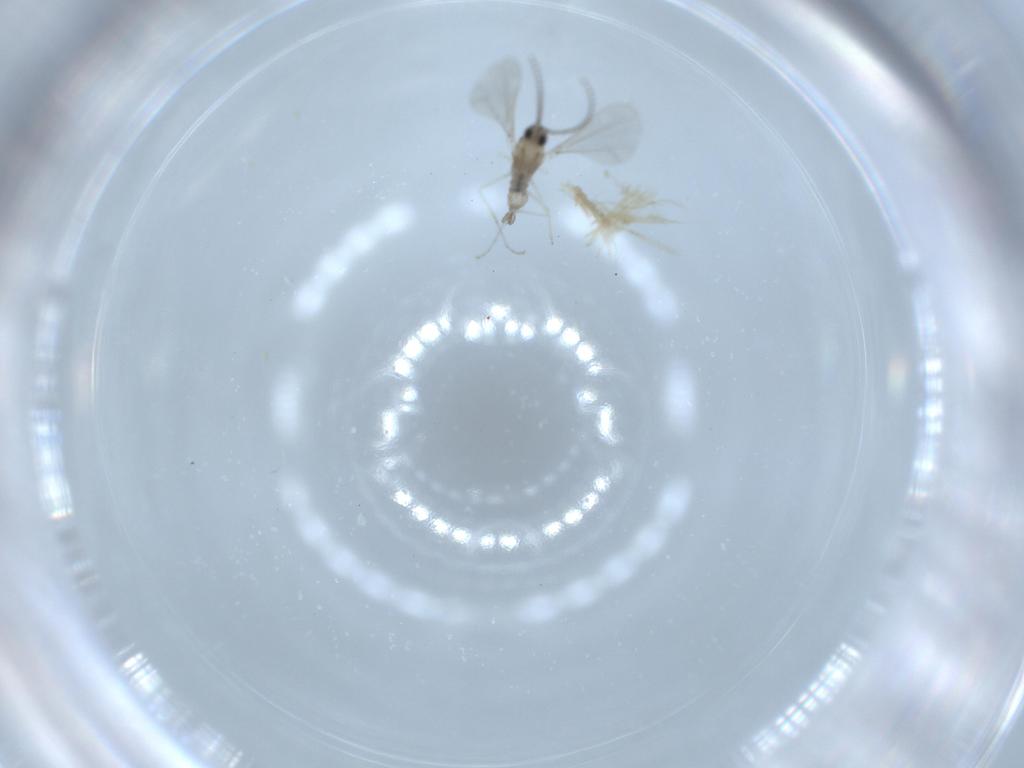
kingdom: Animalia
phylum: Arthropoda
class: Insecta
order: Diptera
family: Cecidomyiidae
